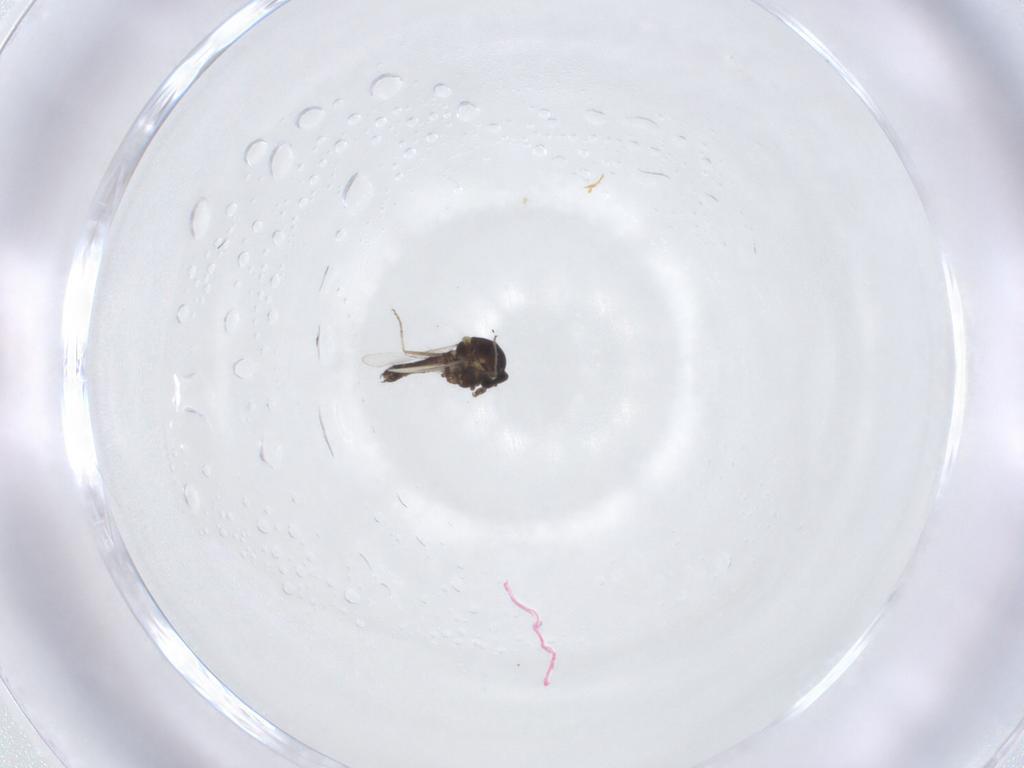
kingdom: Animalia
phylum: Arthropoda
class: Insecta
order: Diptera
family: Ceratopogonidae
